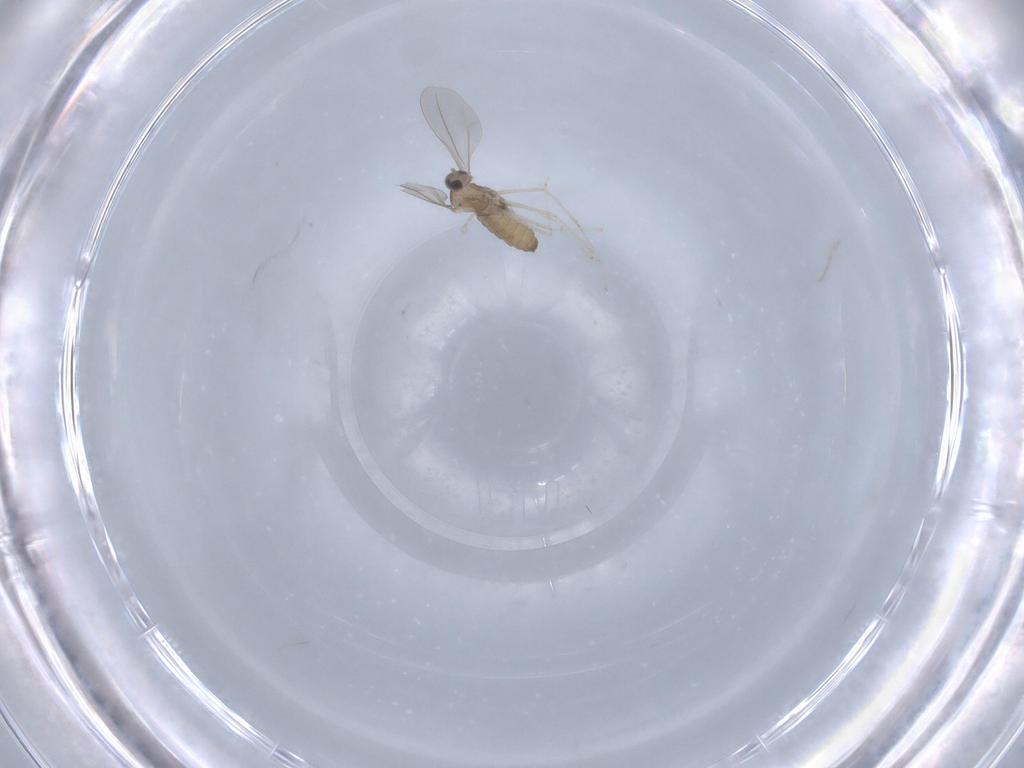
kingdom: Animalia
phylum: Arthropoda
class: Insecta
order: Diptera
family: Cecidomyiidae
